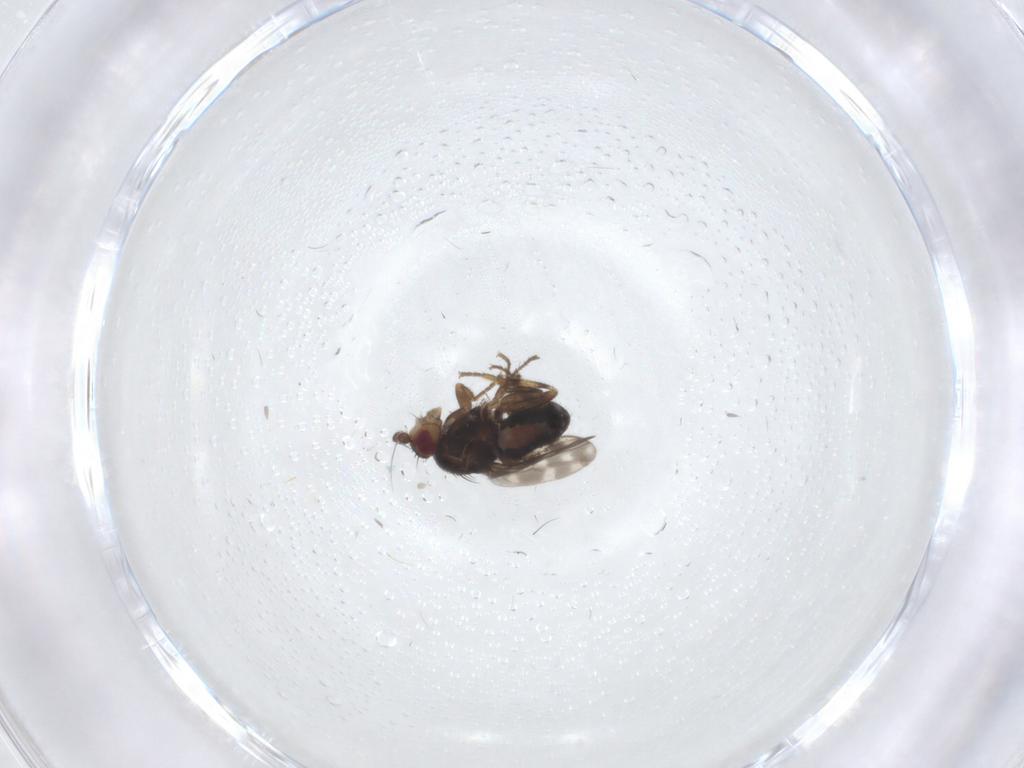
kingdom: Animalia
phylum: Arthropoda
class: Insecta
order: Diptera
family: Sphaeroceridae
